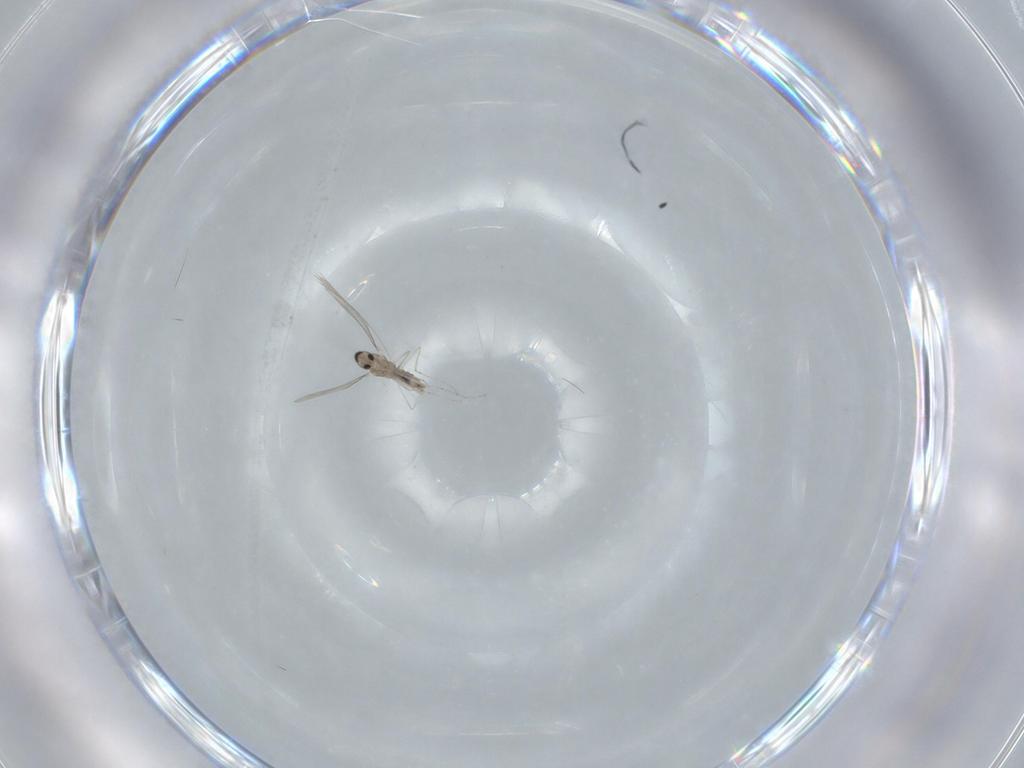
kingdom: Animalia
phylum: Arthropoda
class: Insecta
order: Diptera
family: Cecidomyiidae
